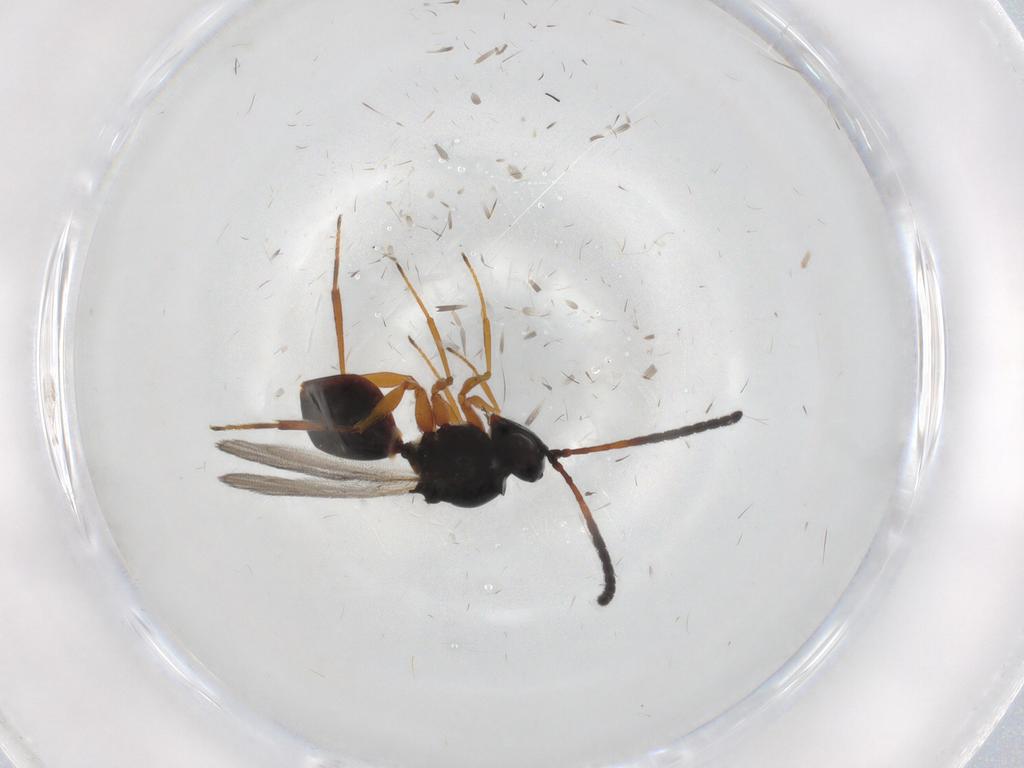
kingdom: Animalia
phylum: Arthropoda
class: Insecta
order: Hymenoptera
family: Figitidae
